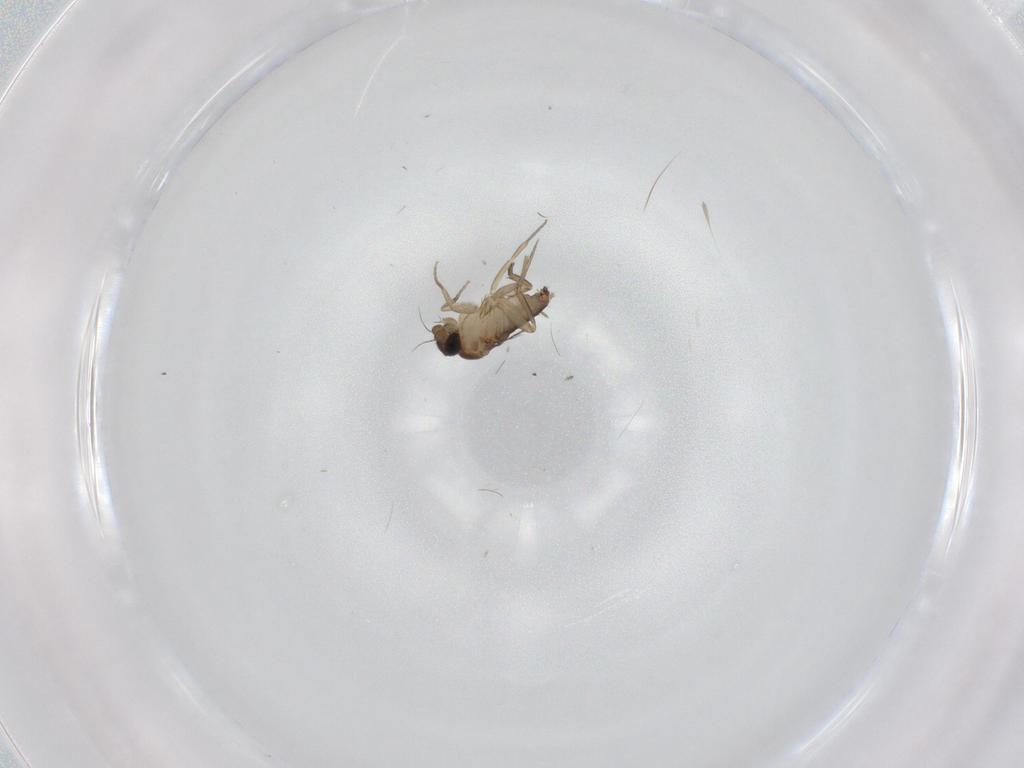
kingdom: Animalia
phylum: Arthropoda
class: Insecta
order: Diptera
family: Phoridae
